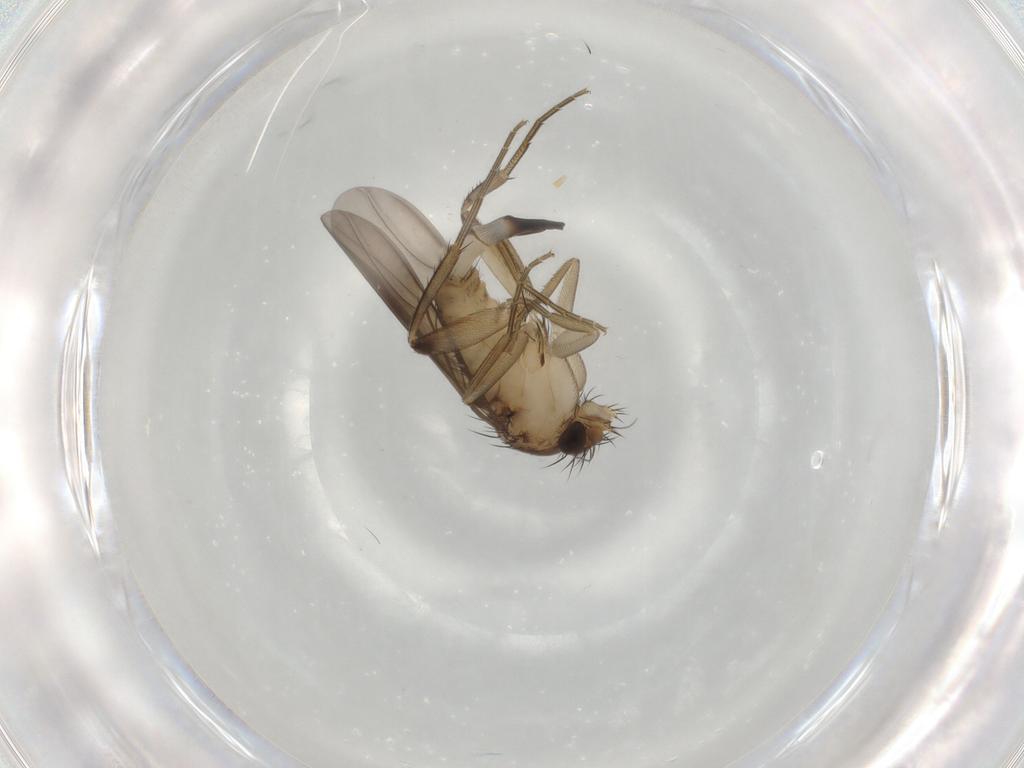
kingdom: Animalia
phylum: Arthropoda
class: Insecta
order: Diptera
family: Phoridae
